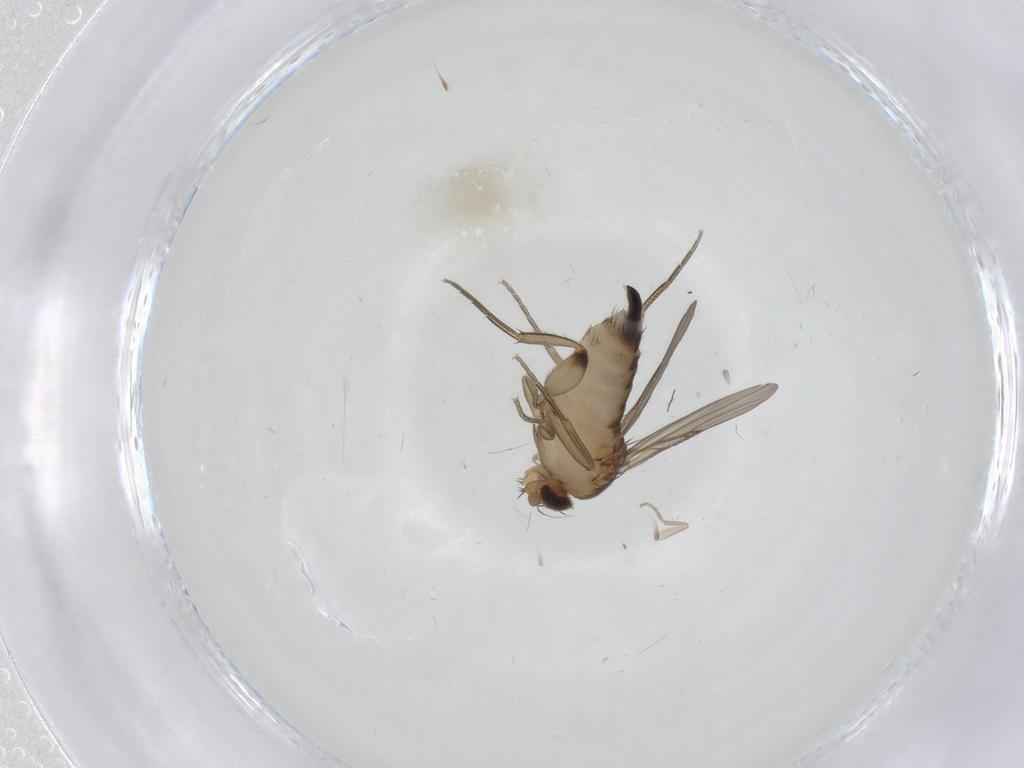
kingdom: Animalia
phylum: Arthropoda
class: Insecta
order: Diptera
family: Phoridae
